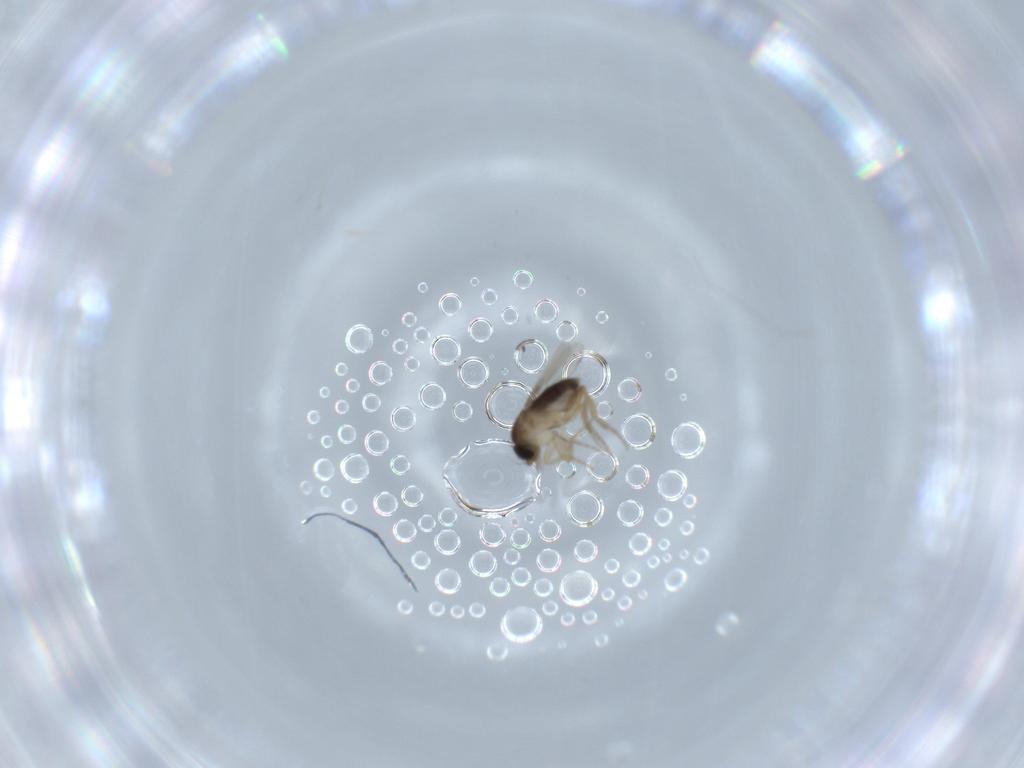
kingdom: Animalia
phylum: Arthropoda
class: Insecta
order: Diptera
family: Phoridae
